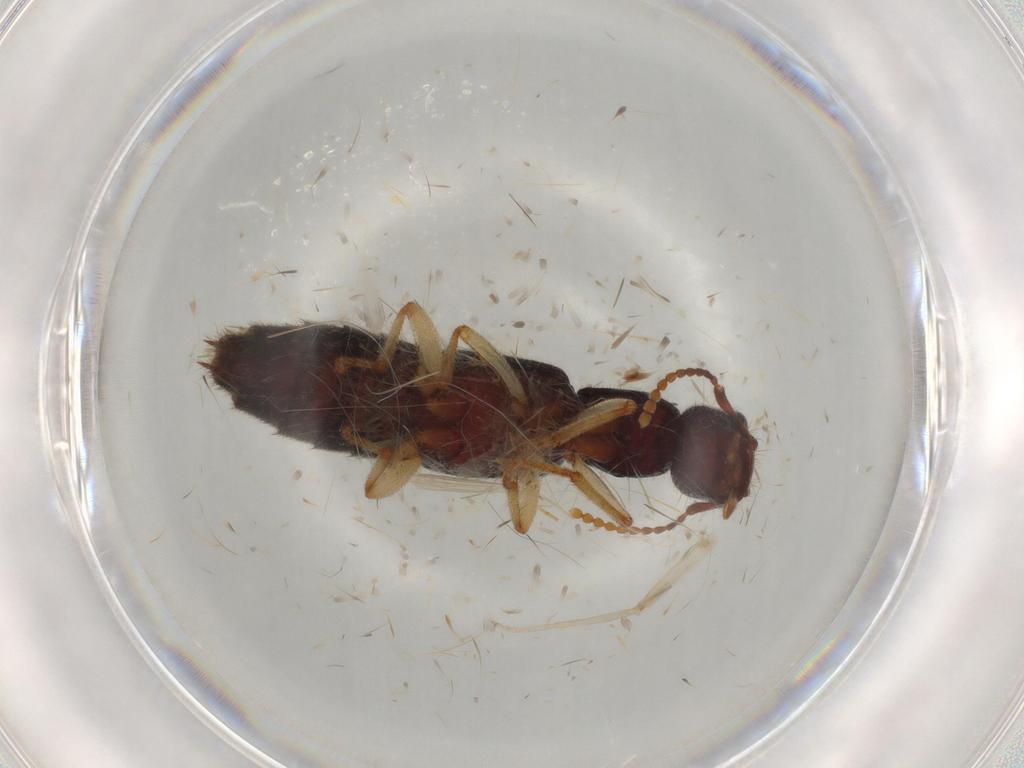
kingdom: Animalia
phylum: Arthropoda
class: Insecta
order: Coleoptera
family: Staphylinidae
